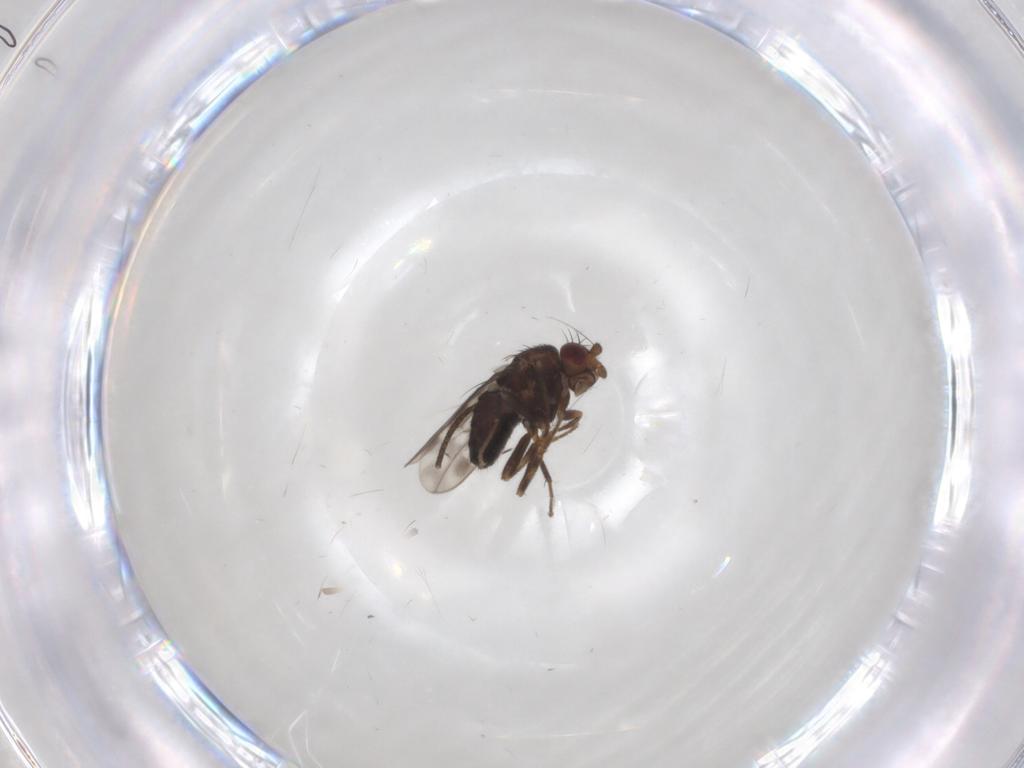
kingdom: Animalia
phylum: Arthropoda
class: Insecta
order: Diptera
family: Sphaeroceridae
